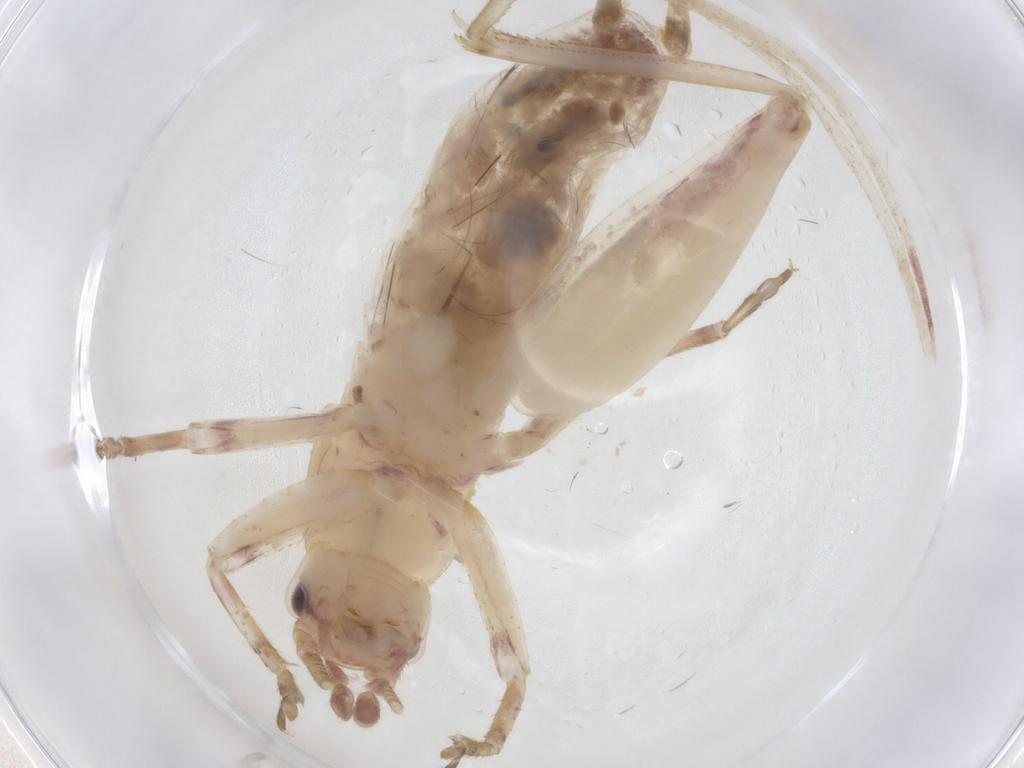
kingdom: Animalia
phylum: Arthropoda
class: Insecta
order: Orthoptera
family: Gryllidae
